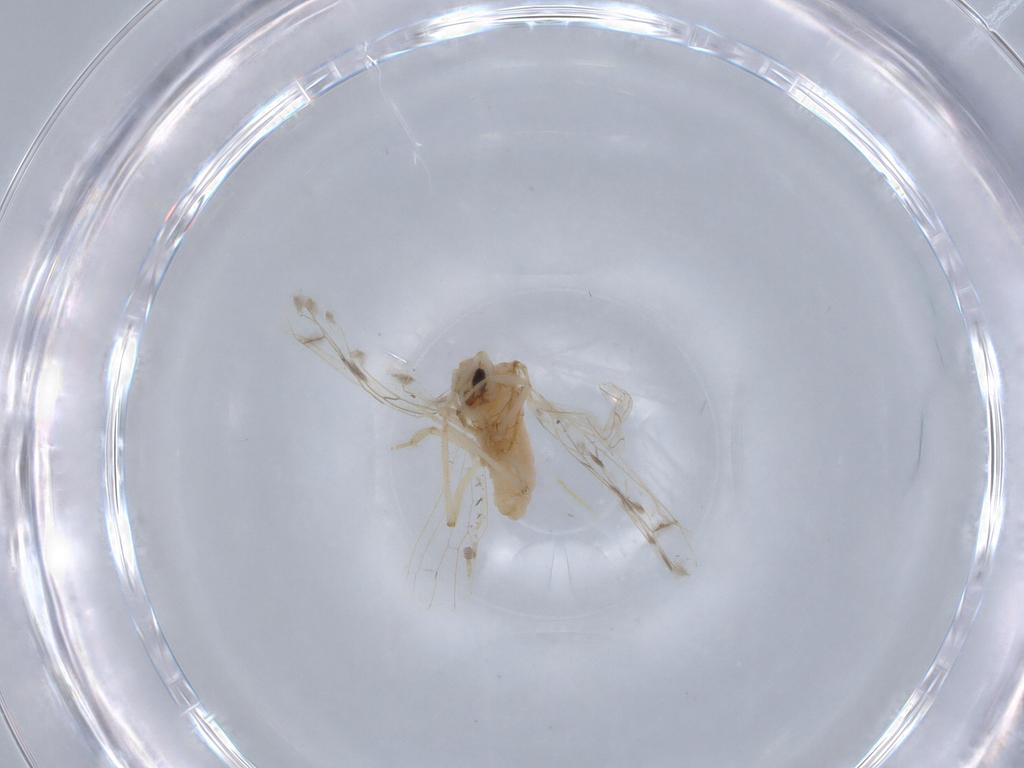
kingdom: Animalia
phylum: Arthropoda
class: Insecta
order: Neuroptera
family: Coniopterygidae
